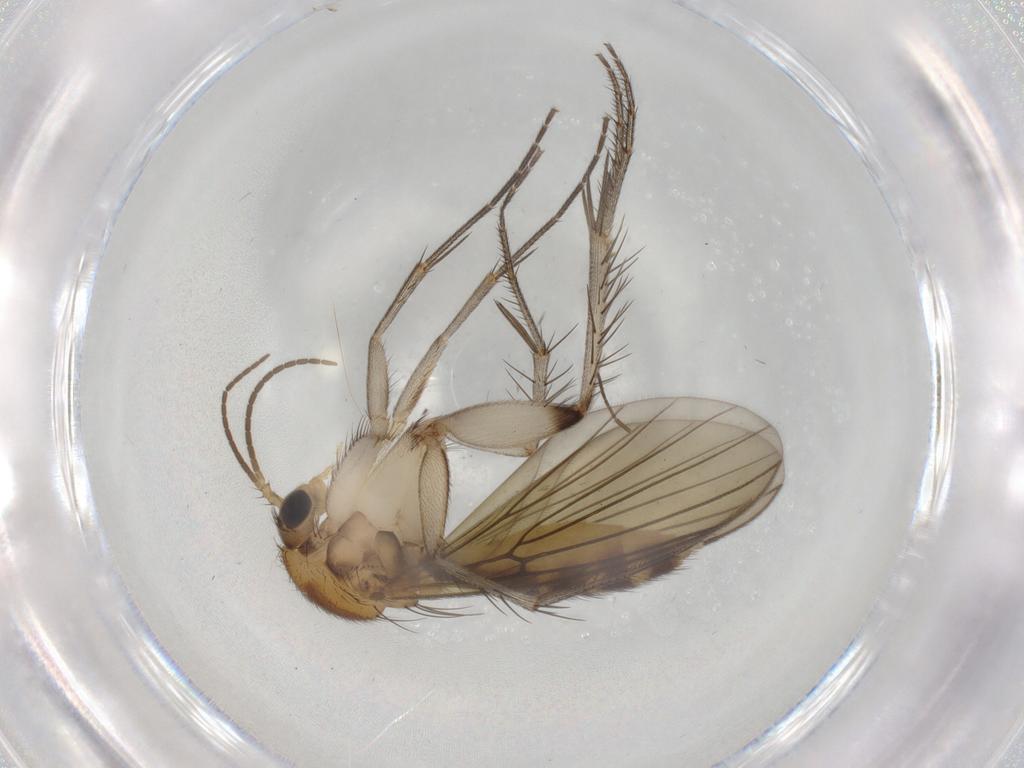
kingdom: Animalia
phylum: Arthropoda
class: Insecta
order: Diptera
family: Mycetophilidae
